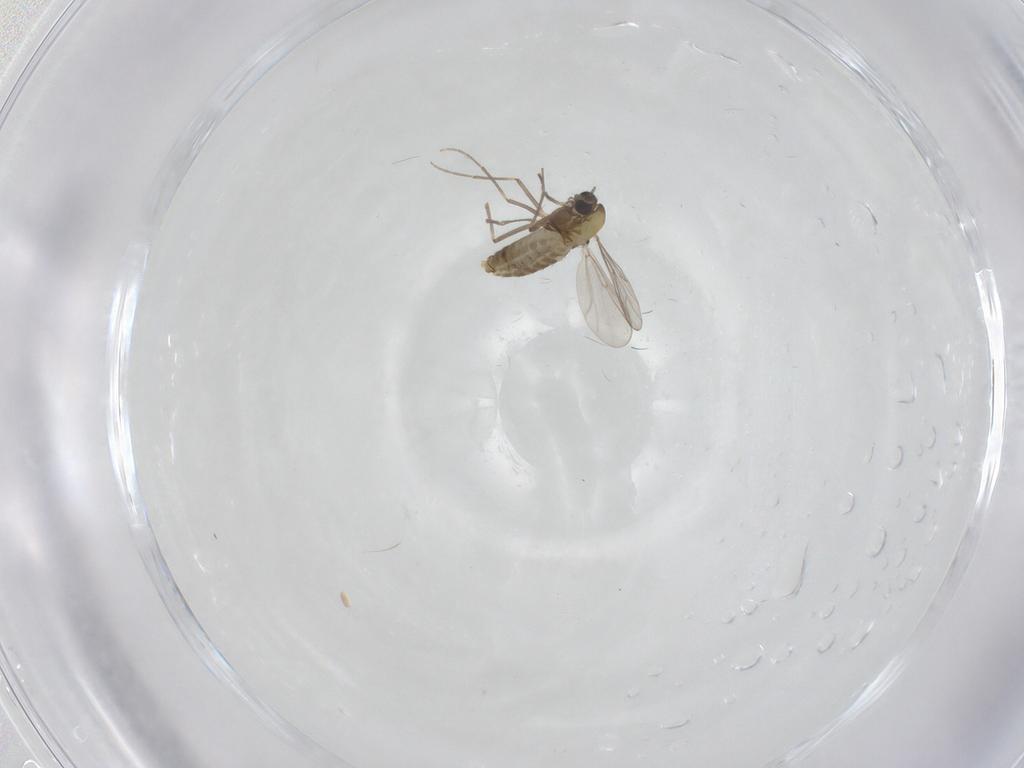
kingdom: Animalia
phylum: Arthropoda
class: Insecta
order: Diptera
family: Chironomidae
